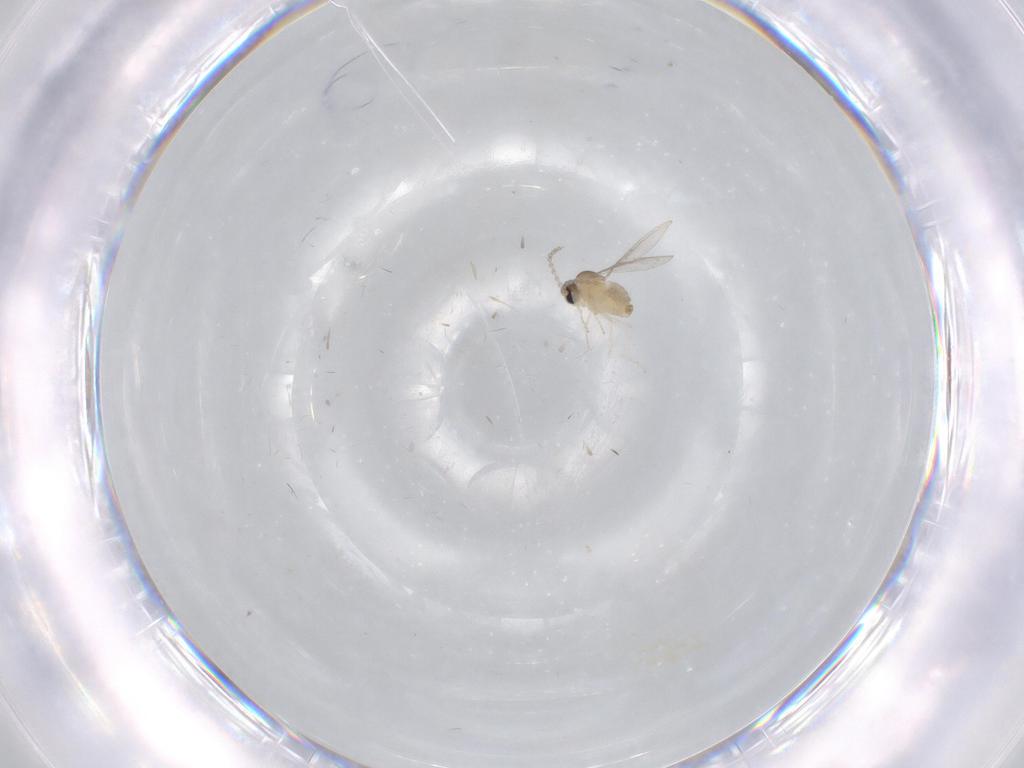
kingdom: Animalia
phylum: Arthropoda
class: Insecta
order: Diptera
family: Cecidomyiidae
